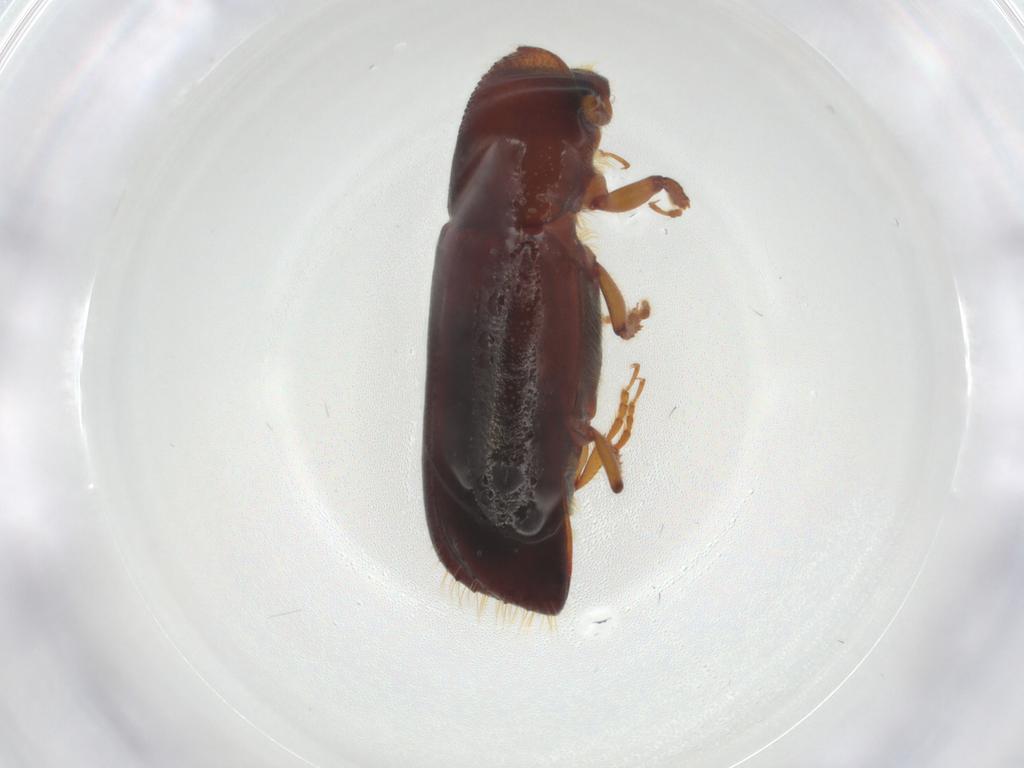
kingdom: Animalia
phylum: Arthropoda
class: Insecta
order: Coleoptera
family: Curculionidae
